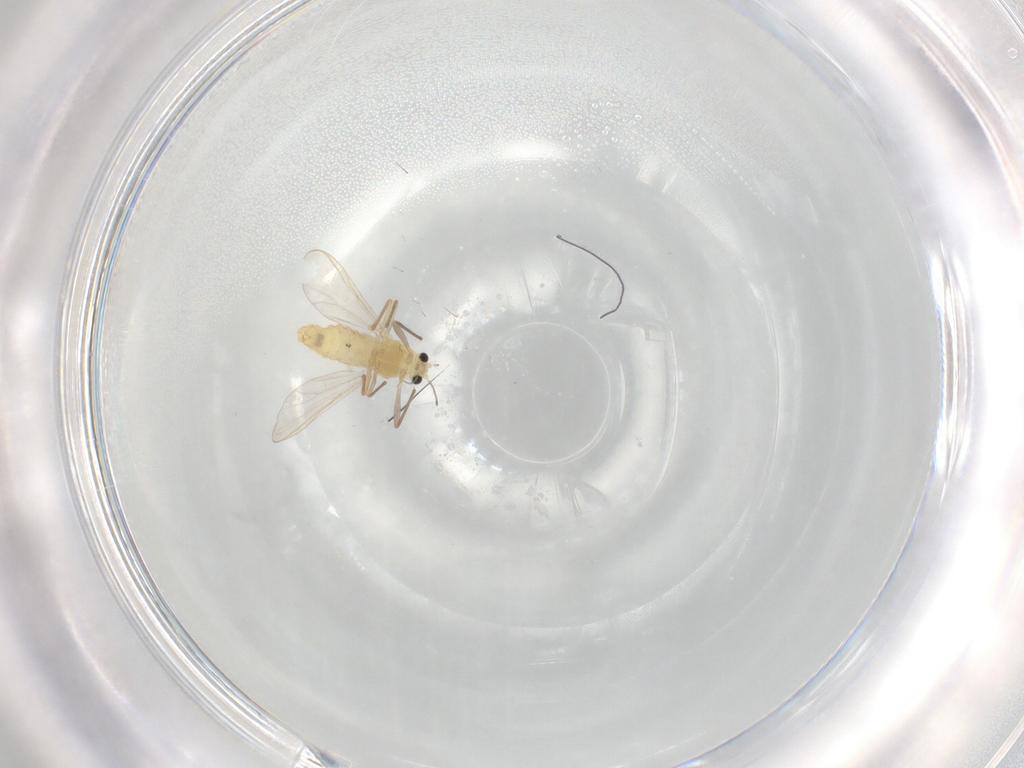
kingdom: Animalia
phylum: Arthropoda
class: Insecta
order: Diptera
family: Chironomidae
